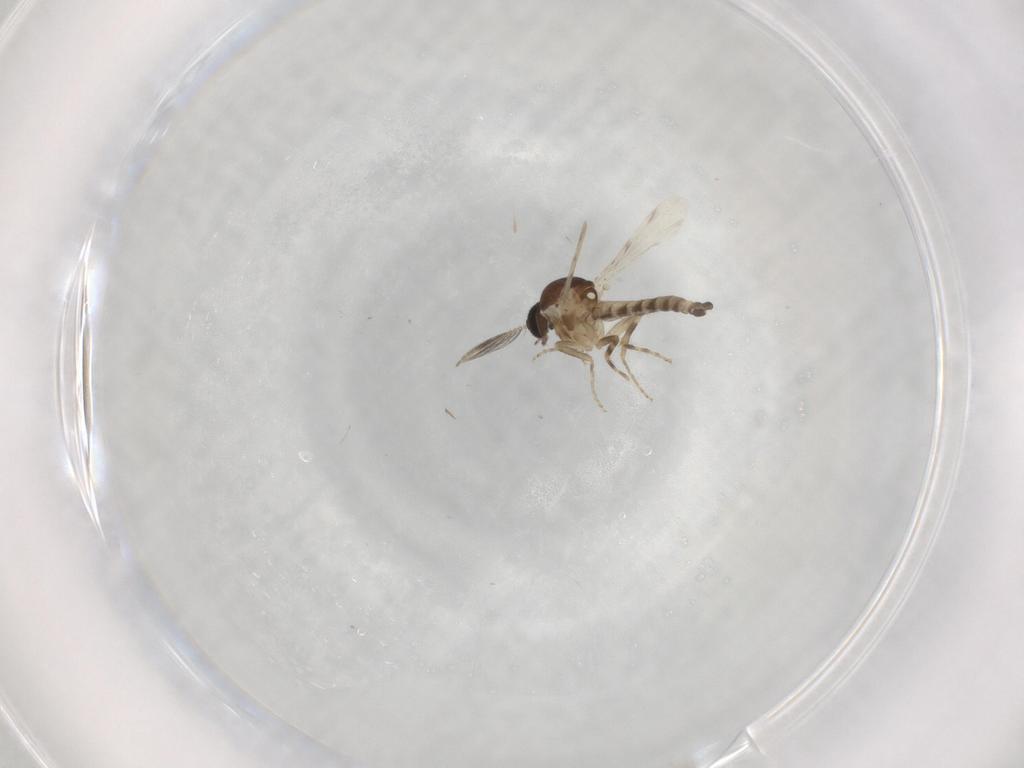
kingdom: Animalia
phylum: Arthropoda
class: Insecta
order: Diptera
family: Ceratopogonidae
